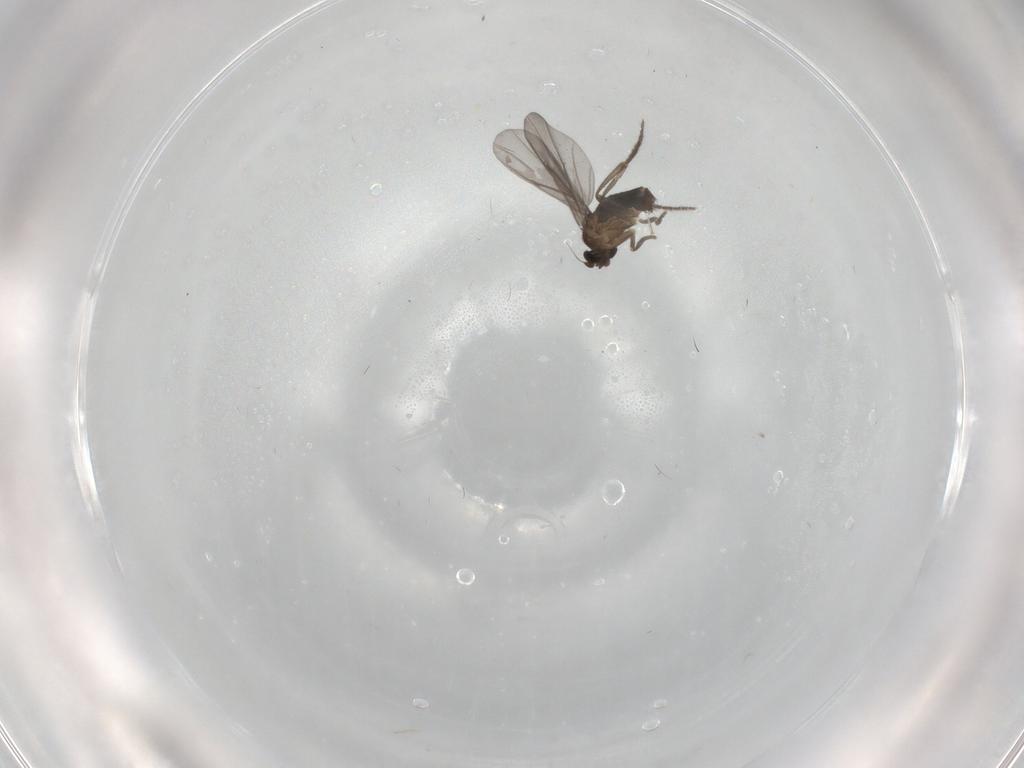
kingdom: Animalia
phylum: Arthropoda
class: Insecta
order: Diptera
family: Phoridae
